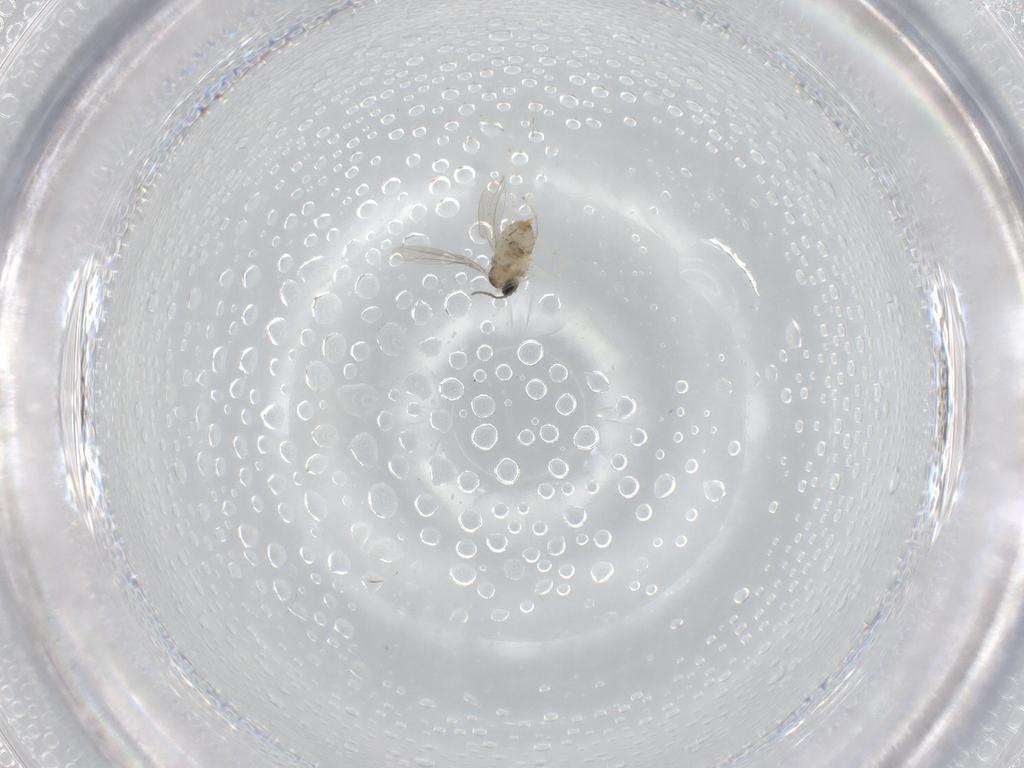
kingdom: Animalia
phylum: Arthropoda
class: Insecta
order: Diptera
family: Cecidomyiidae
